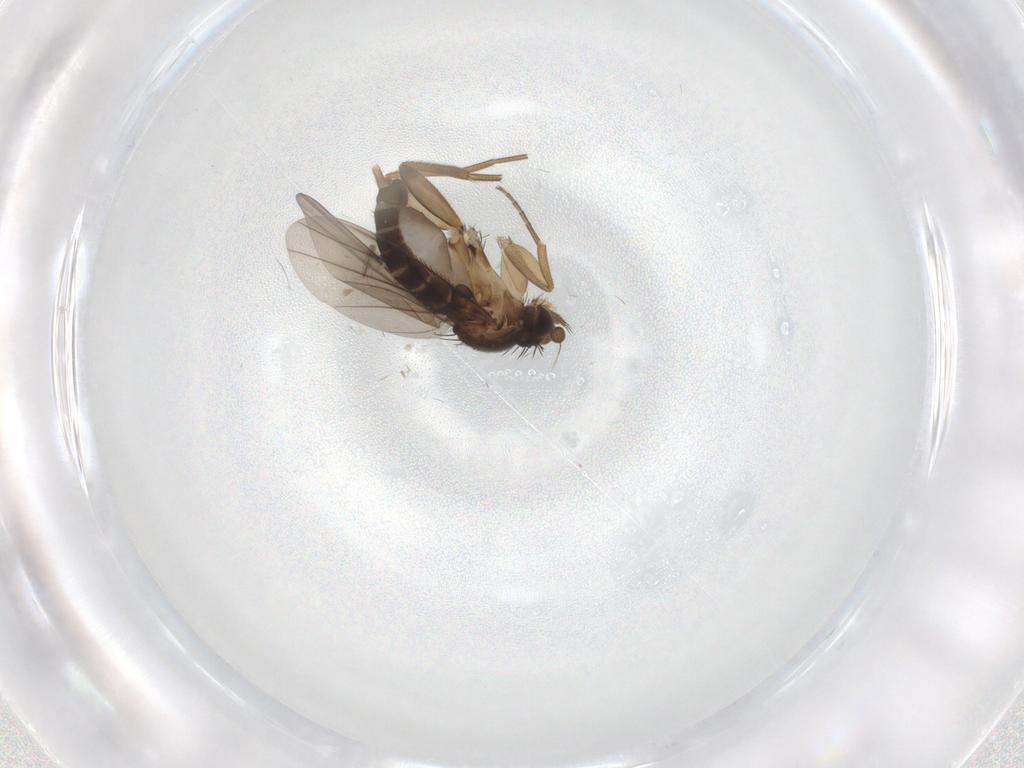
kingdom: Animalia
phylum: Arthropoda
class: Insecta
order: Diptera
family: Phoridae
